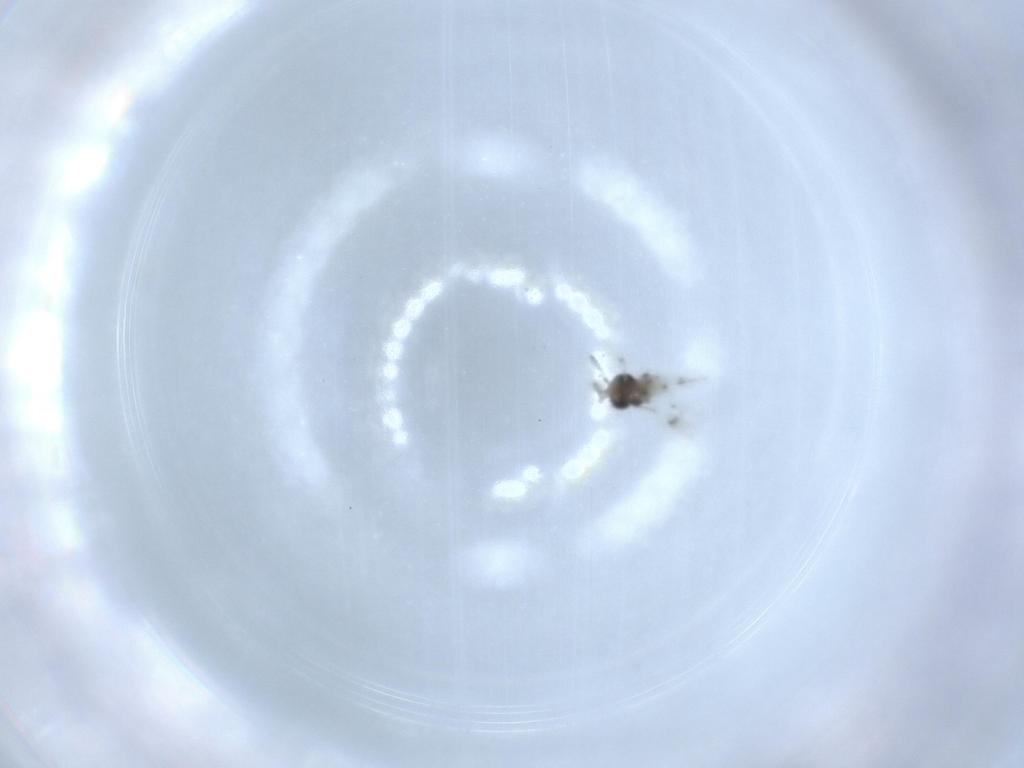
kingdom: Animalia
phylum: Arthropoda
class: Insecta
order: Hymenoptera
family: Scelionidae
